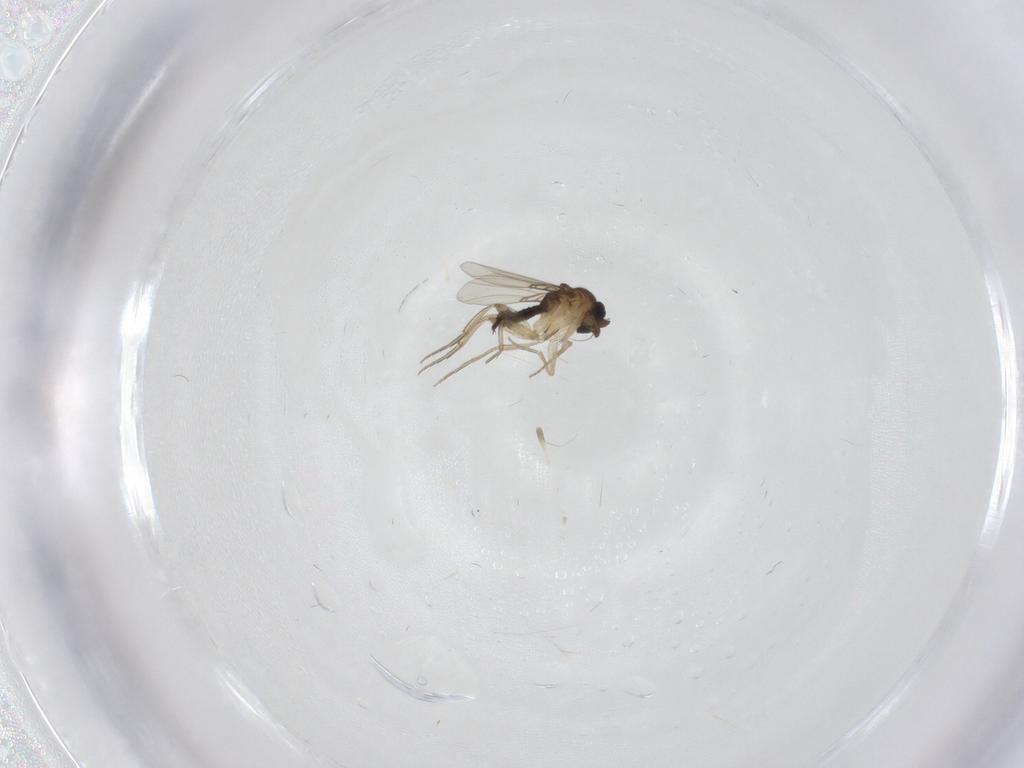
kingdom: Animalia
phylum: Arthropoda
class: Insecta
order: Diptera
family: Phoridae
